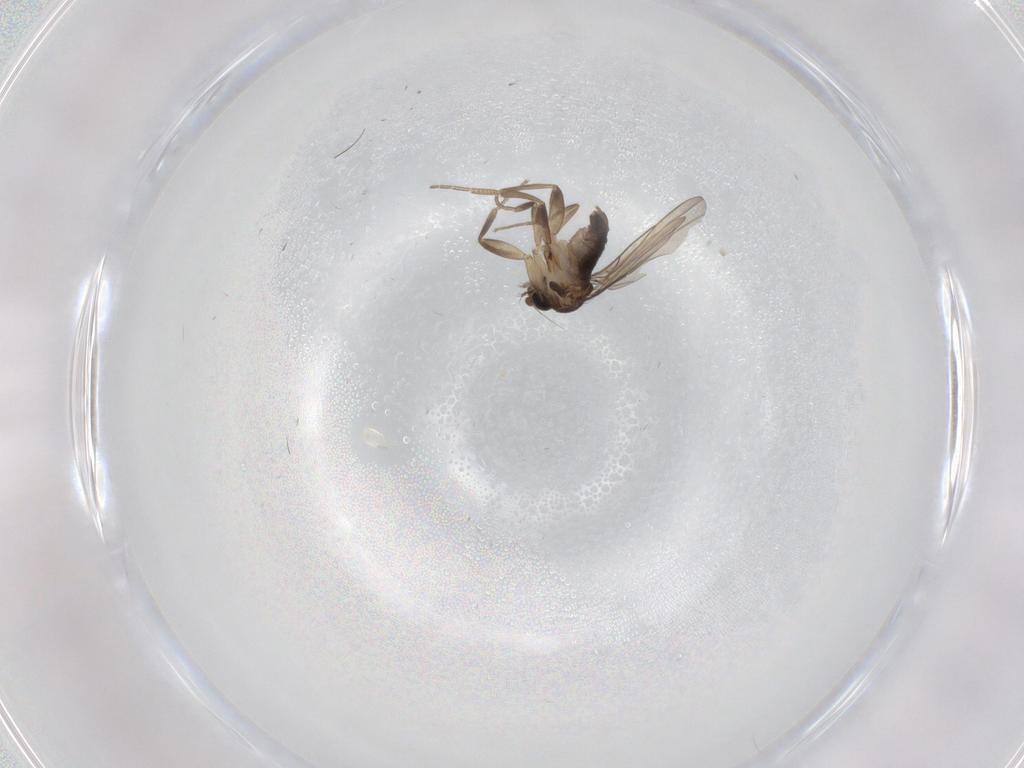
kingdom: Animalia
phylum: Arthropoda
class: Insecta
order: Diptera
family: Phoridae
